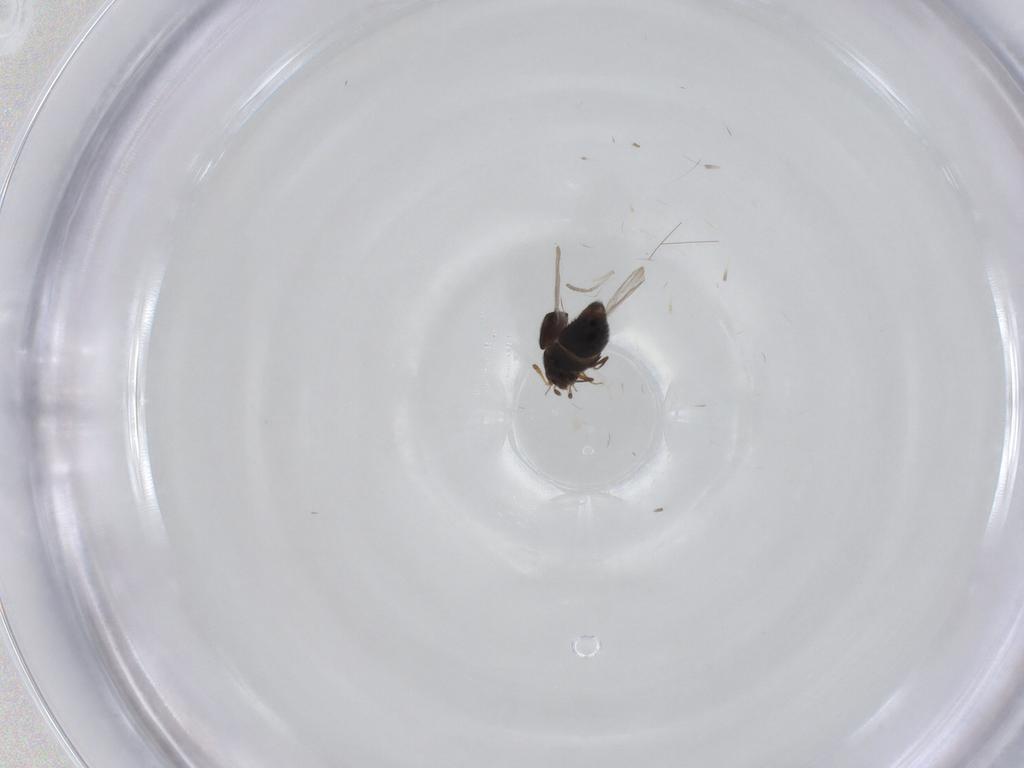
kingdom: Animalia
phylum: Arthropoda
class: Insecta
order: Coleoptera
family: Staphylinidae
